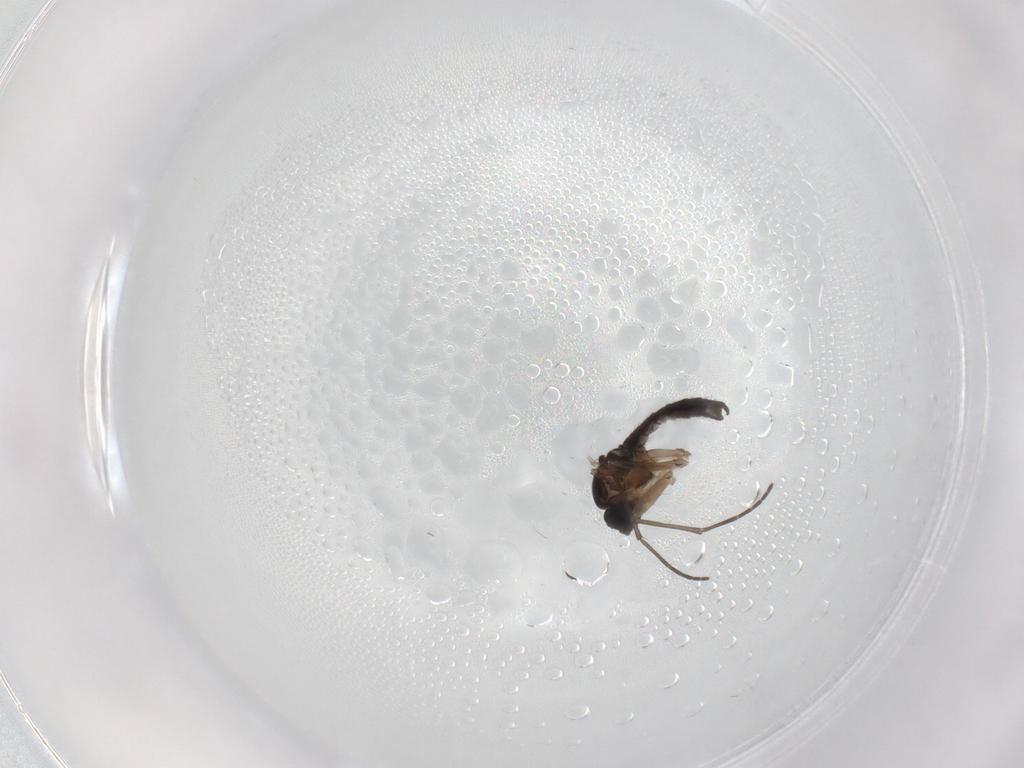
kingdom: Animalia
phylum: Arthropoda
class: Insecta
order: Diptera
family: Sciaridae
